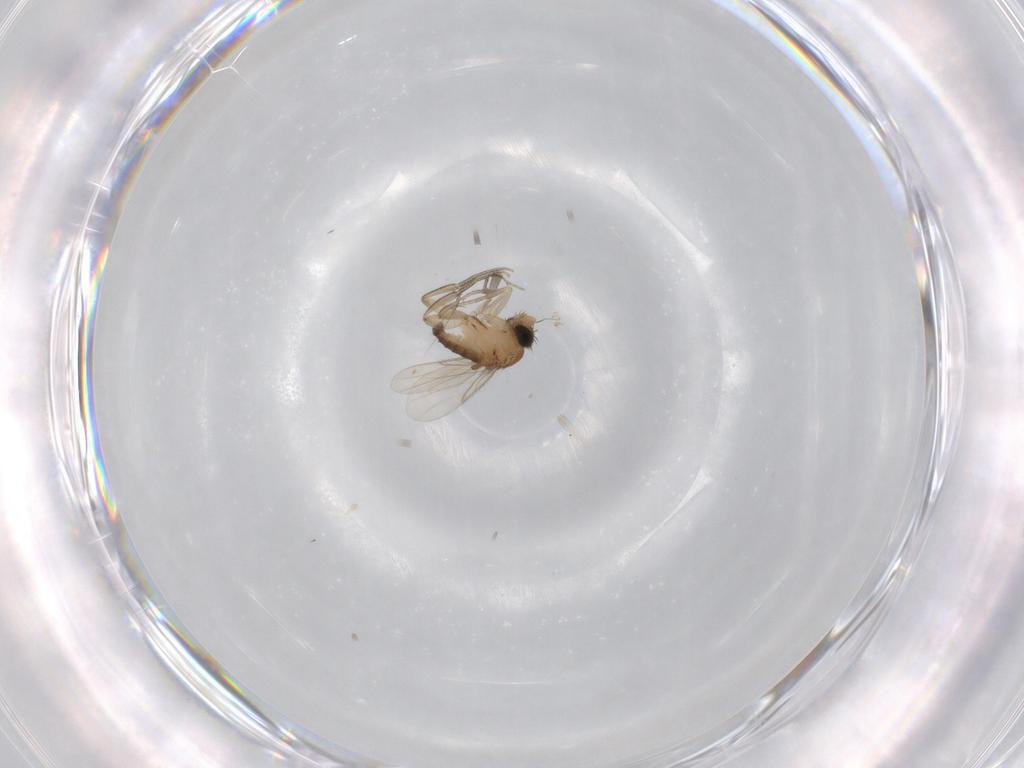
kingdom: Animalia
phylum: Arthropoda
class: Insecta
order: Diptera
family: Phoridae
